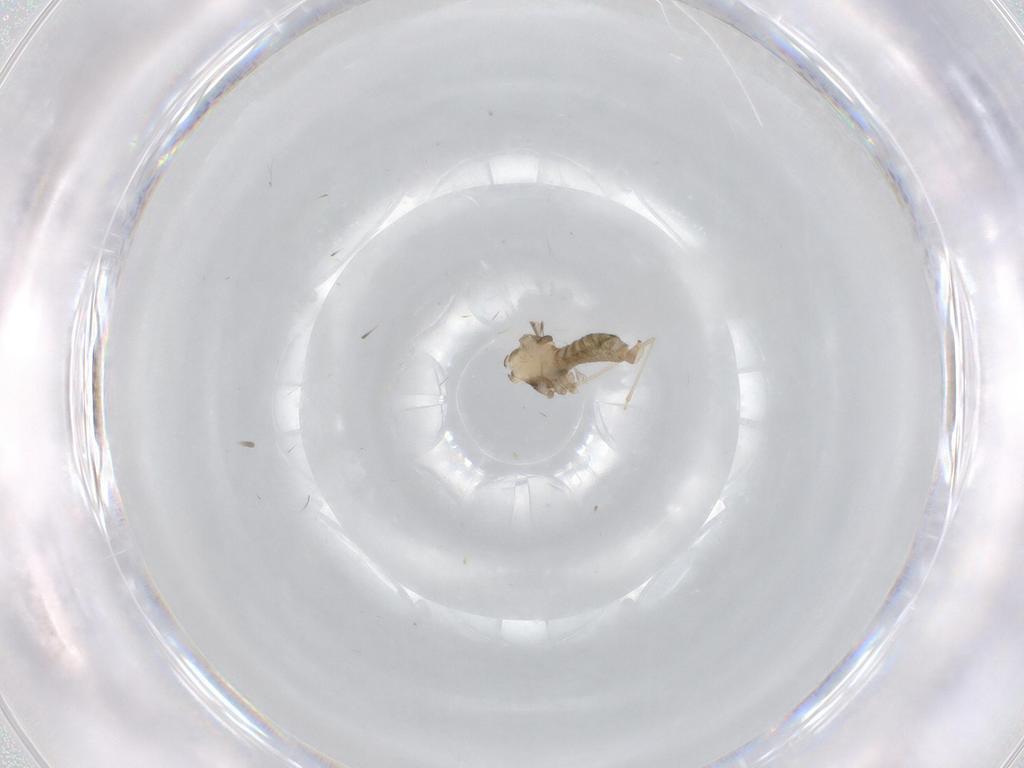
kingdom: Animalia
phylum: Arthropoda
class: Insecta
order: Diptera
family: Cecidomyiidae
